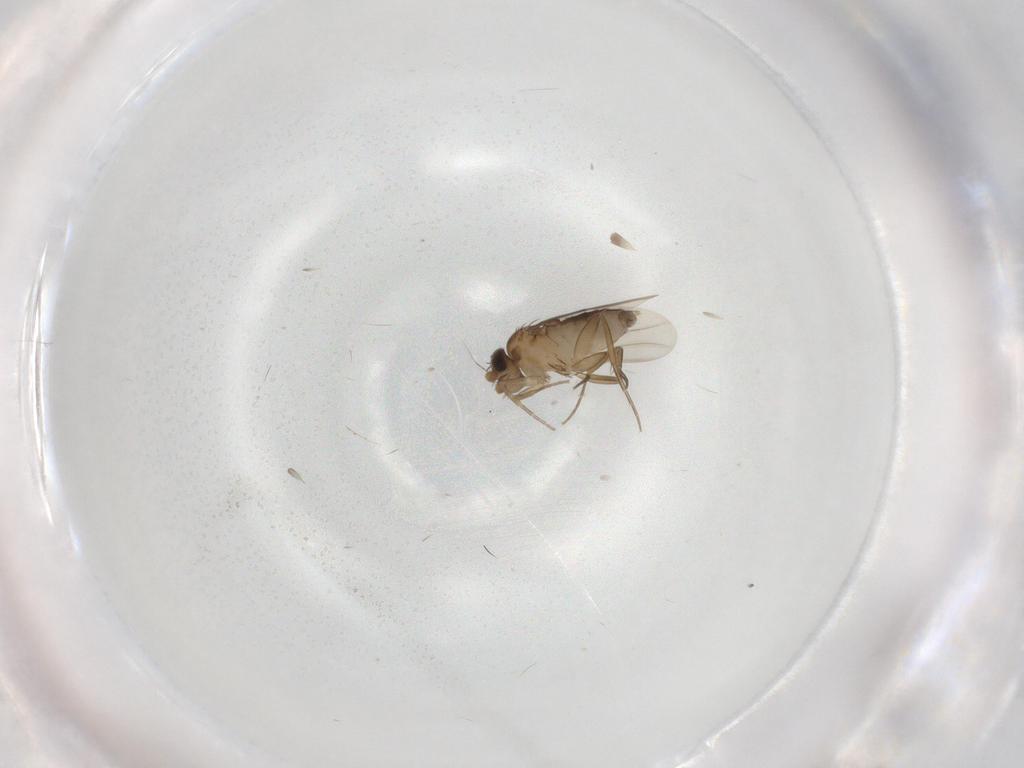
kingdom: Animalia
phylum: Arthropoda
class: Insecta
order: Diptera
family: Phoridae
